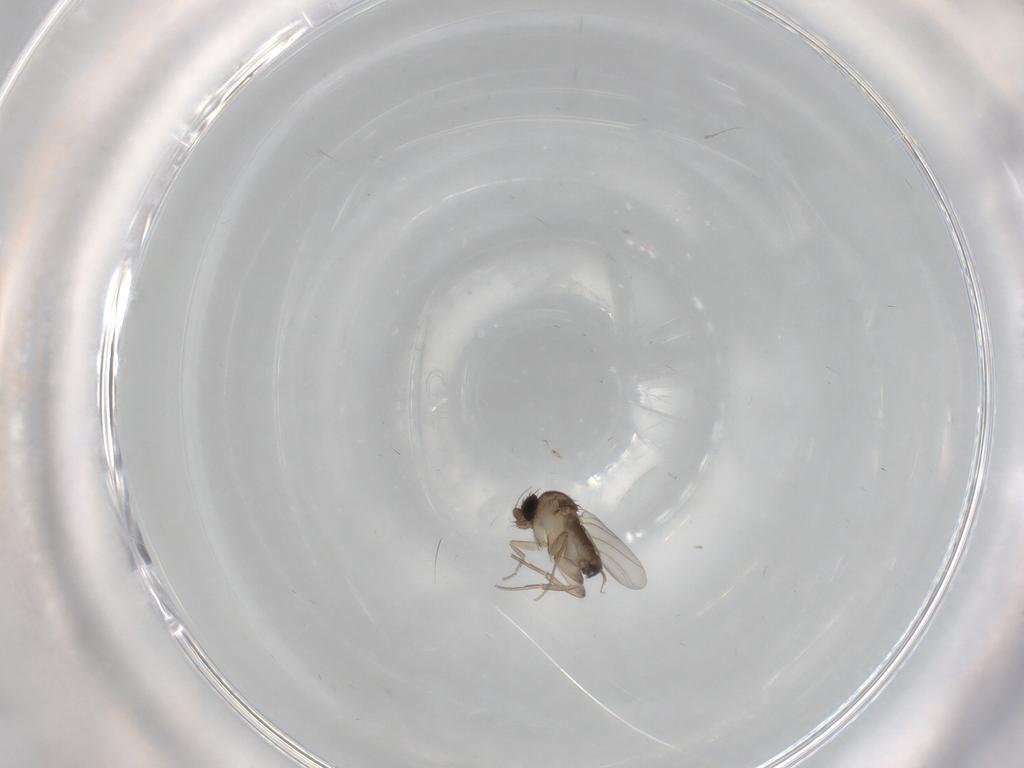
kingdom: Animalia
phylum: Arthropoda
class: Insecta
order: Diptera
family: Phoridae
